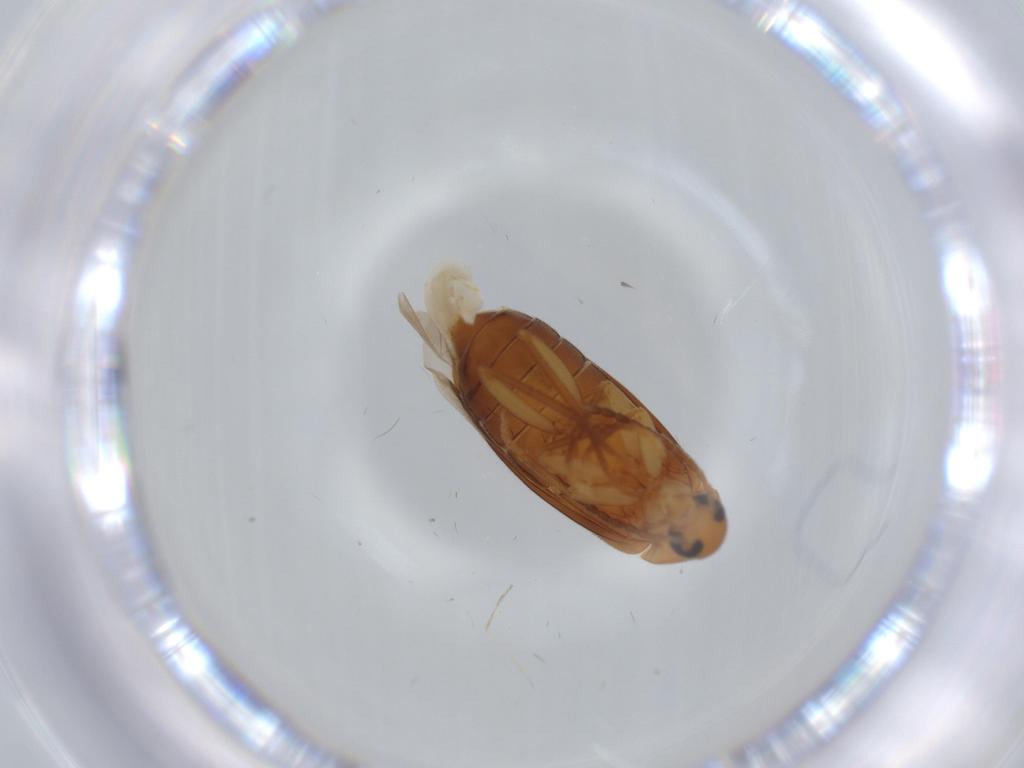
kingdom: Animalia
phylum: Arthropoda
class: Insecta
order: Coleoptera
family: Scraptiidae
